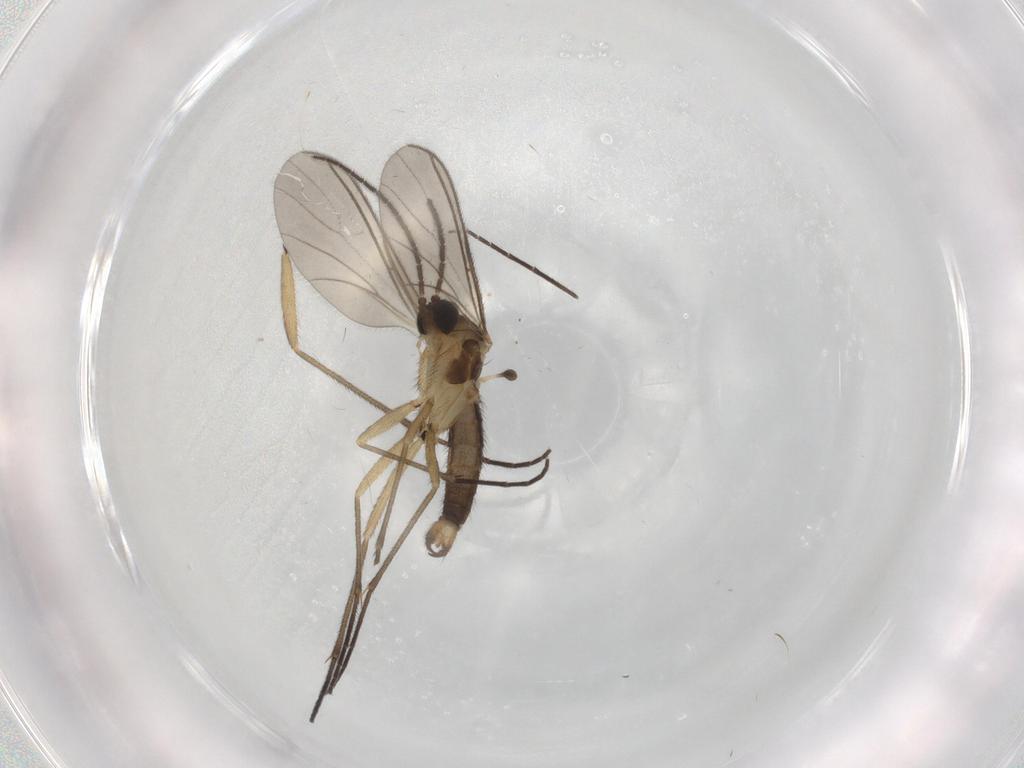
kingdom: Animalia
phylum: Arthropoda
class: Insecta
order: Diptera
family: Sciaridae
